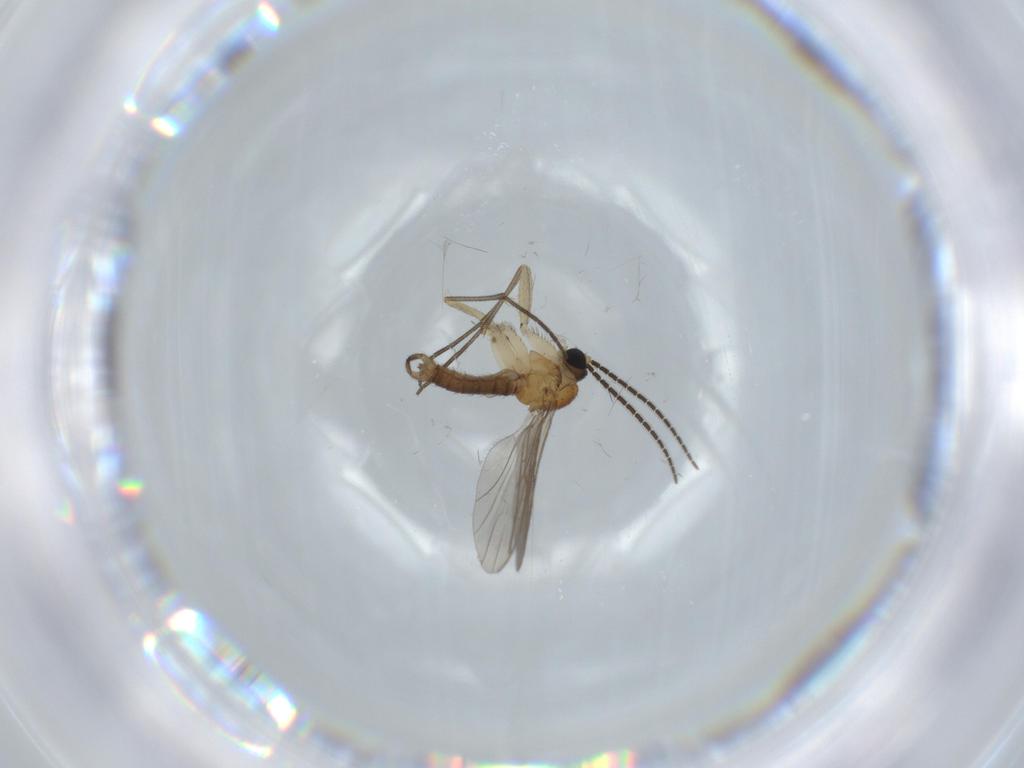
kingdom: Animalia
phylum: Arthropoda
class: Insecta
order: Diptera
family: Sciaridae
